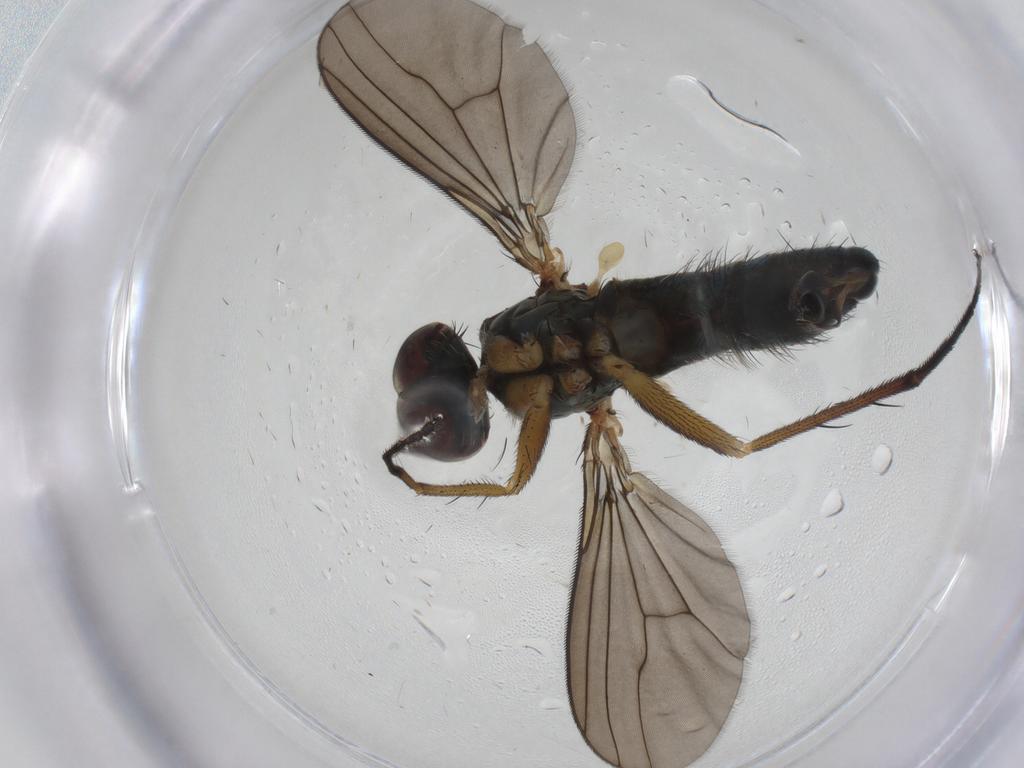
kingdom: Animalia
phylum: Arthropoda
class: Insecta
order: Diptera
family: Dolichopodidae
